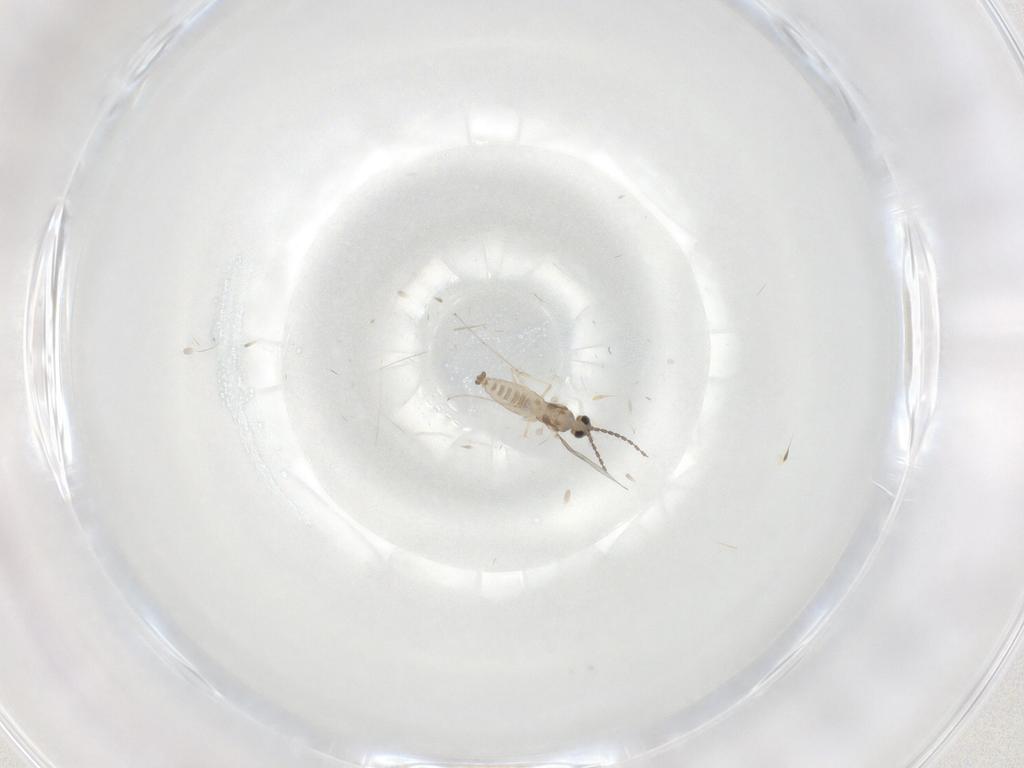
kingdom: Animalia
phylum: Arthropoda
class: Insecta
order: Diptera
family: Cecidomyiidae
